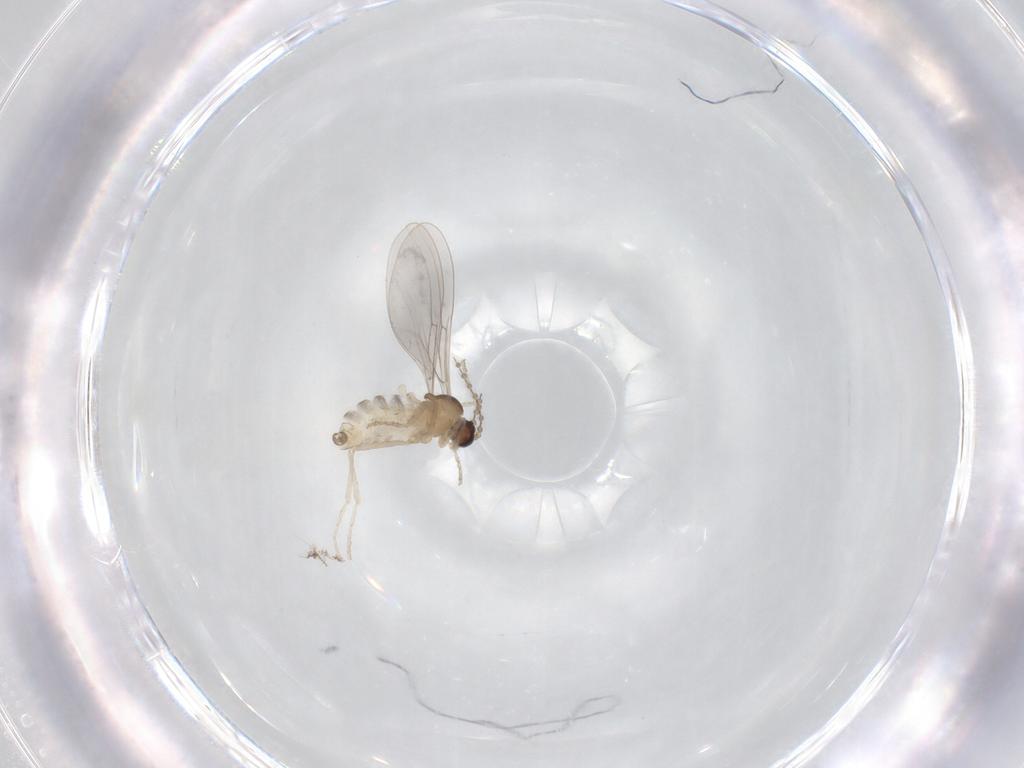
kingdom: Animalia
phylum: Arthropoda
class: Insecta
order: Diptera
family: Cecidomyiidae
